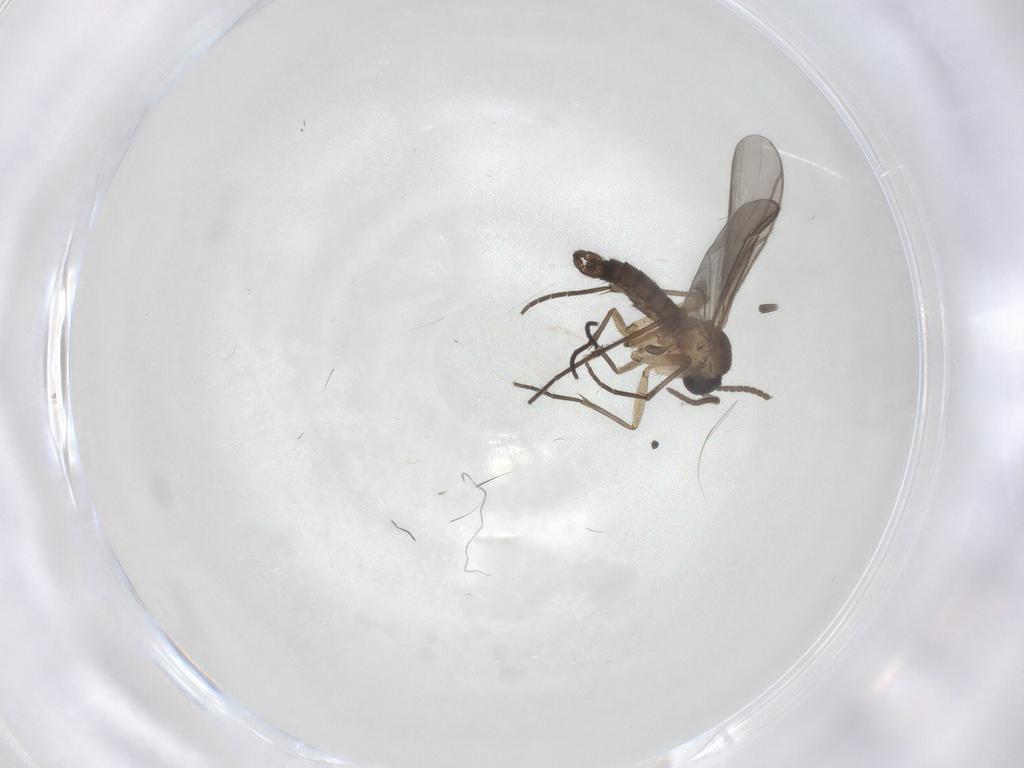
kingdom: Animalia
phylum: Arthropoda
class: Insecta
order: Diptera
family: Sciaridae
